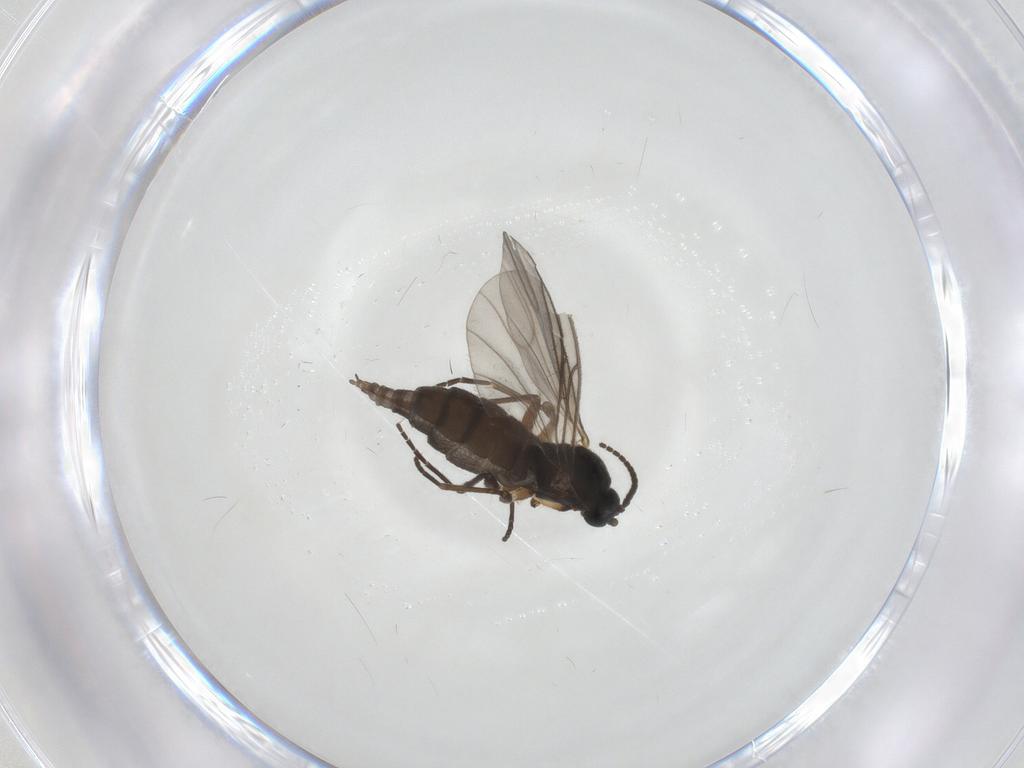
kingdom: Animalia
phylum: Arthropoda
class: Insecta
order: Diptera
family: Sciaridae
